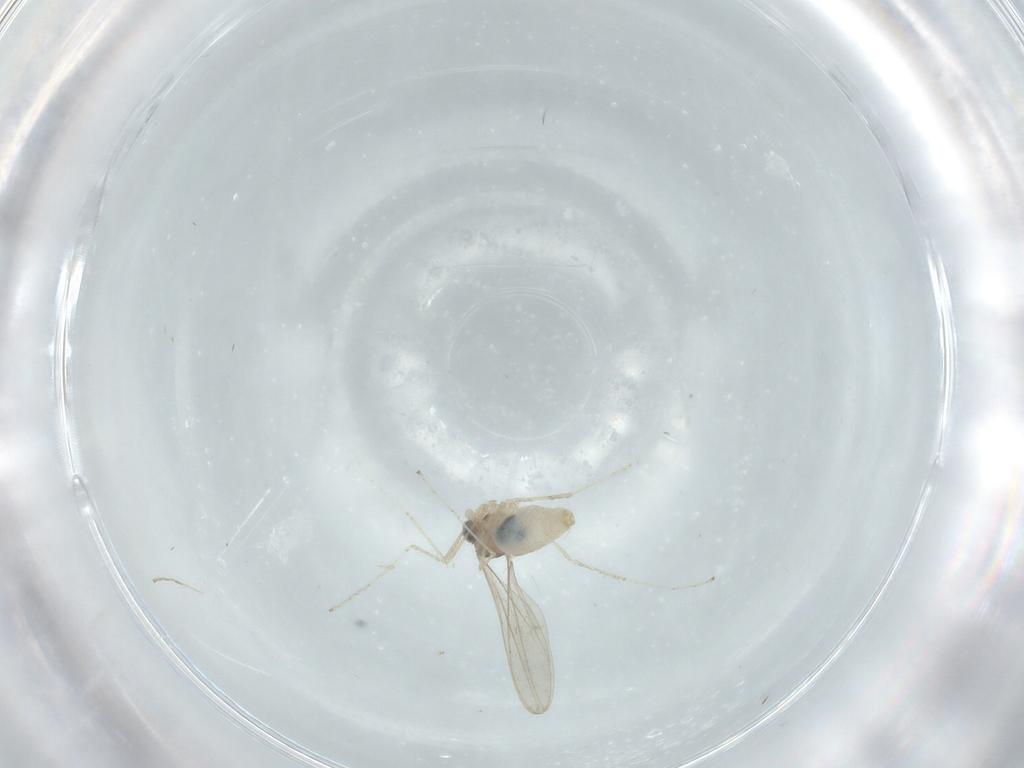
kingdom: Animalia
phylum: Arthropoda
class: Insecta
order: Diptera
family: Cecidomyiidae
